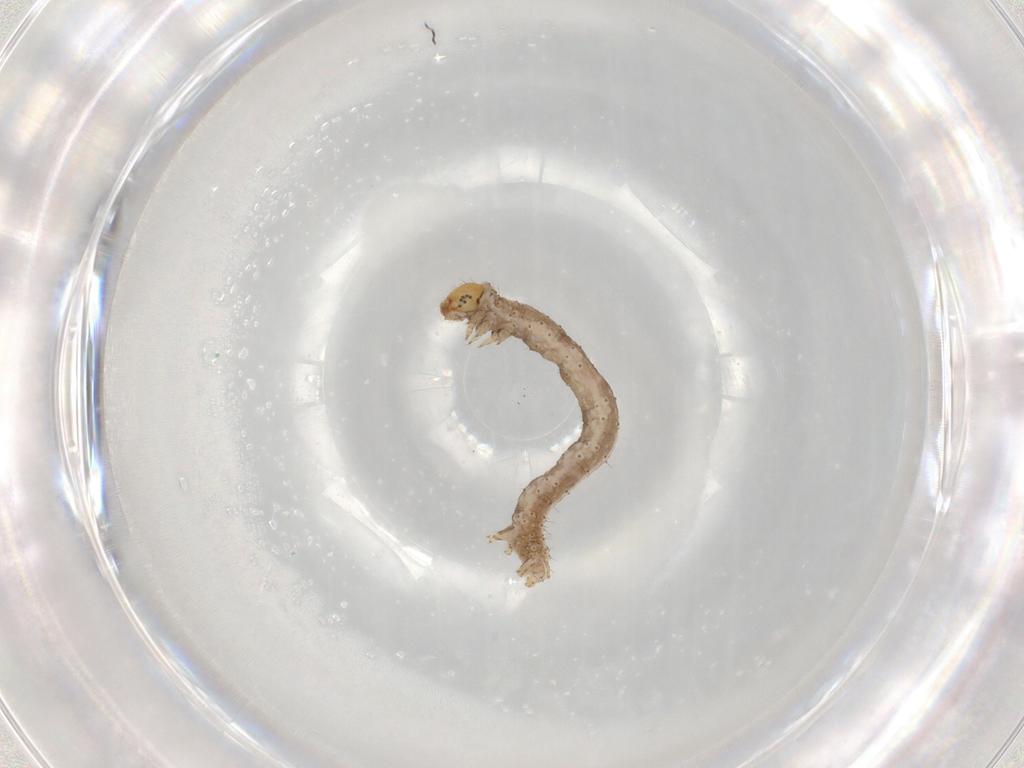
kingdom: Animalia
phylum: Arthropoda
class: Insecta
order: Lepidoptera
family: Geometridae
